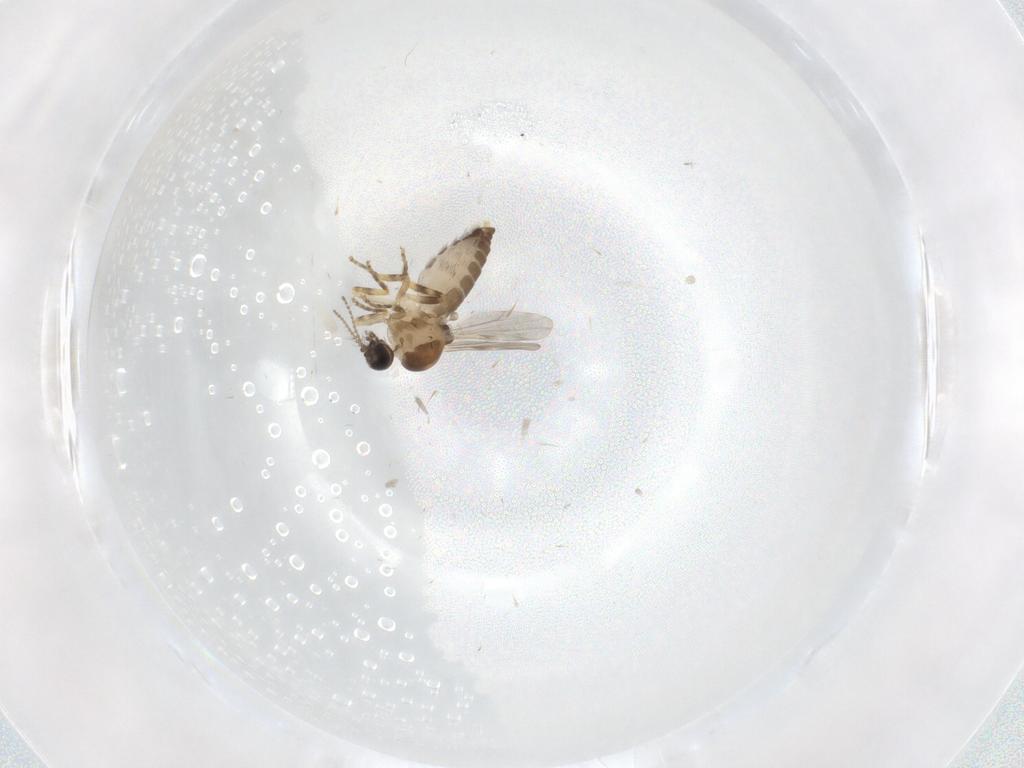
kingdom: Animalia
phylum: Arthropoda
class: Insecta
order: Diptera
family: Ceratopogonidae
